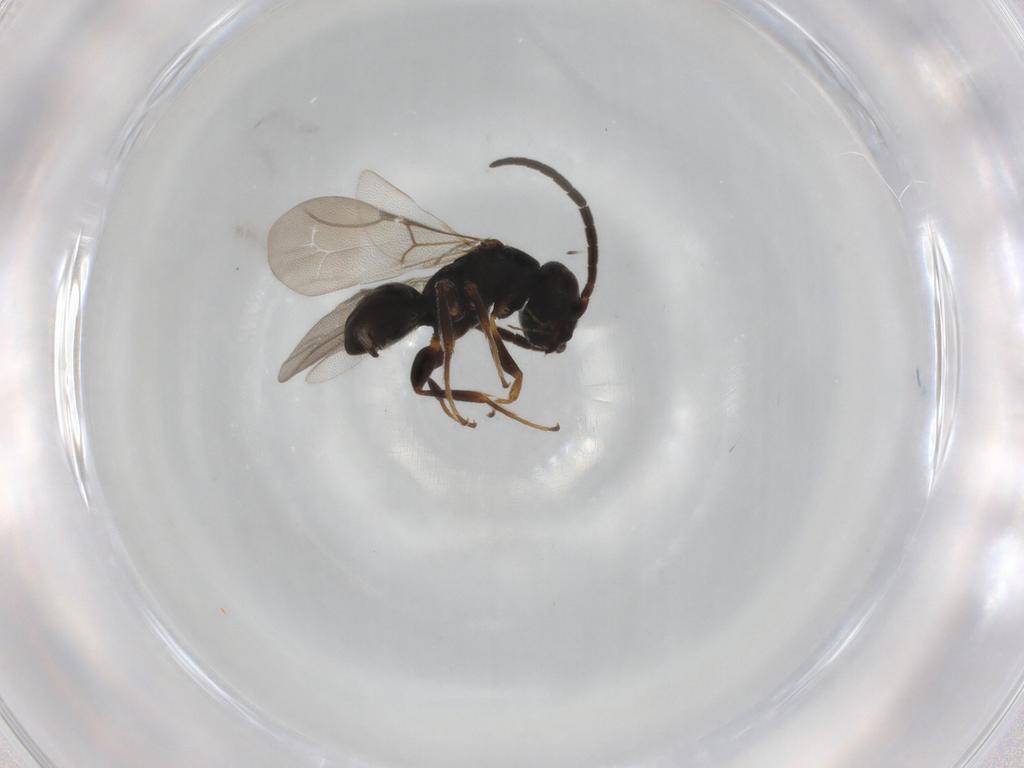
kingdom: Animalia
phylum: Arthropoda
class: Insecta
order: Hymenoptera
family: Bethylidae
